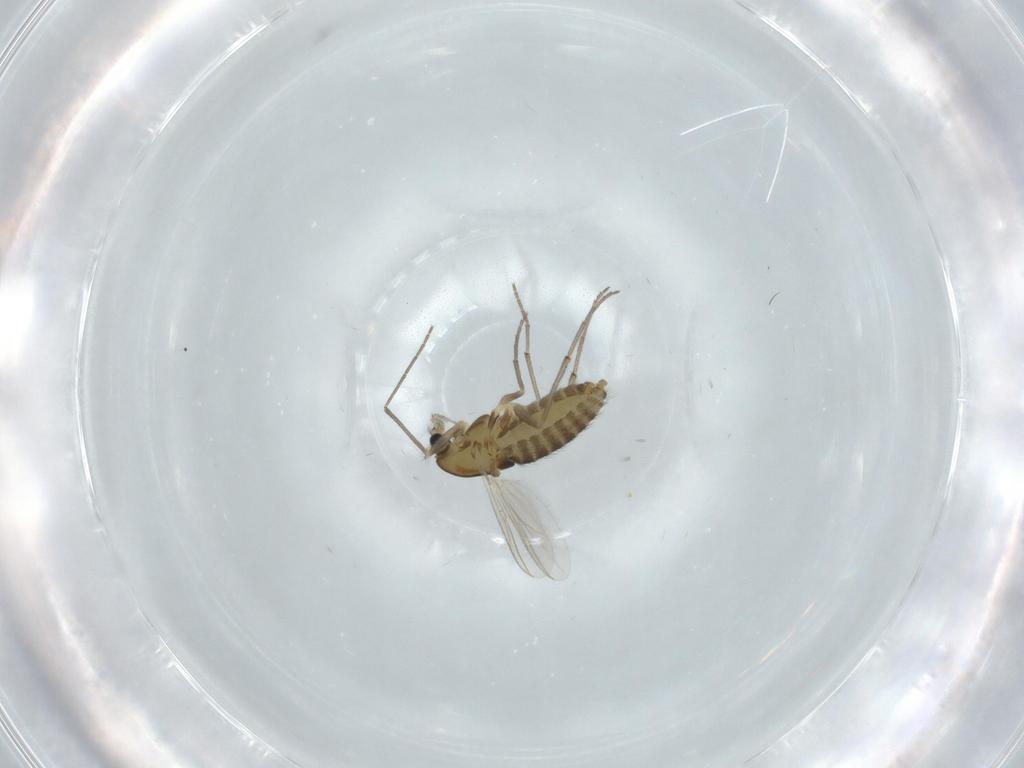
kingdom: Animalia
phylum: Arthropoda
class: Insecta
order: Diptera
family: Chironomidae
